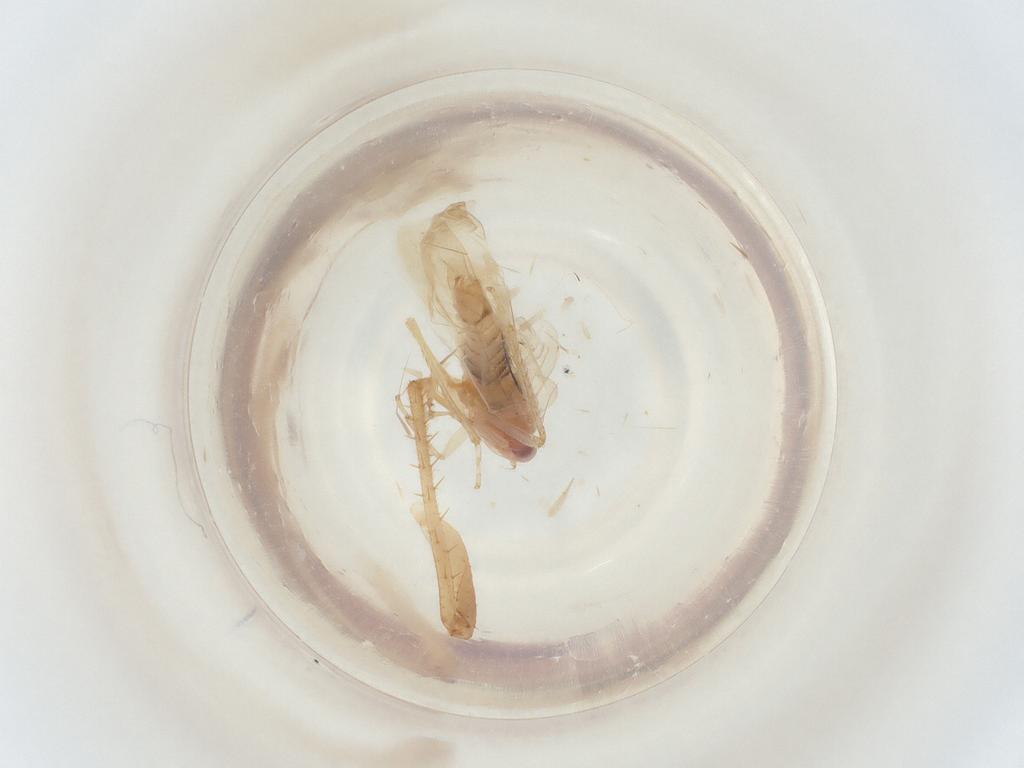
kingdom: Animalia
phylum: Arthropoda
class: Insecta
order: Hemiptera
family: Miridae
